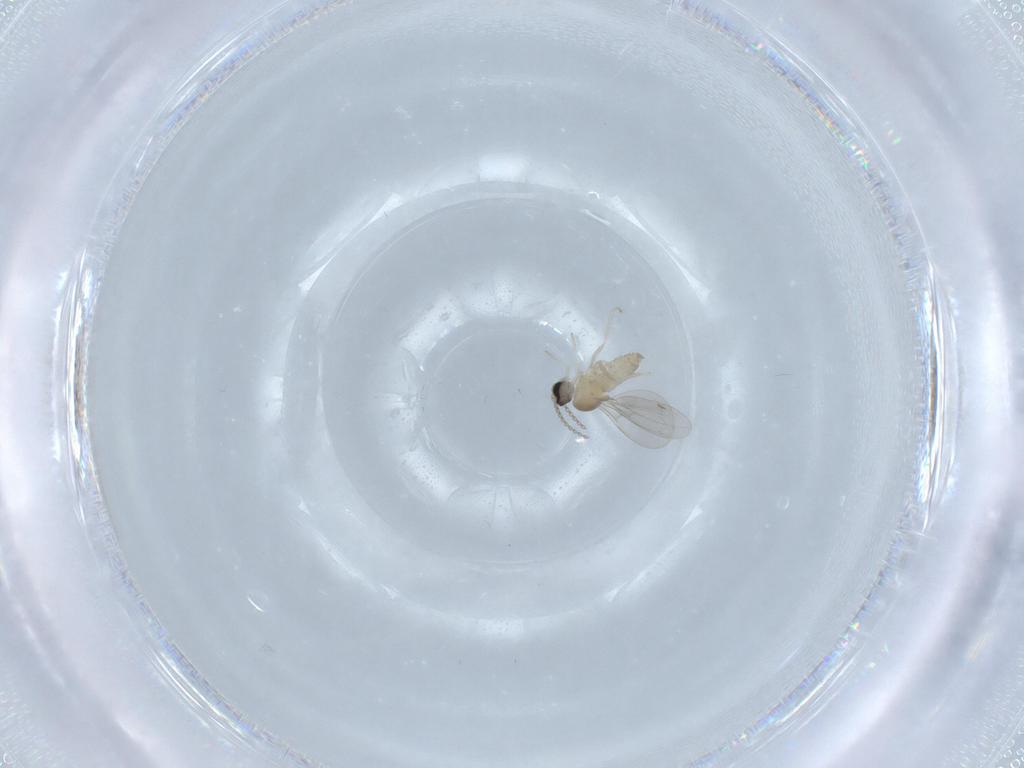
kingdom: Animalia
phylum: Arthropoda
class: Insecta
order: Diptera
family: Cecidomyiidae
